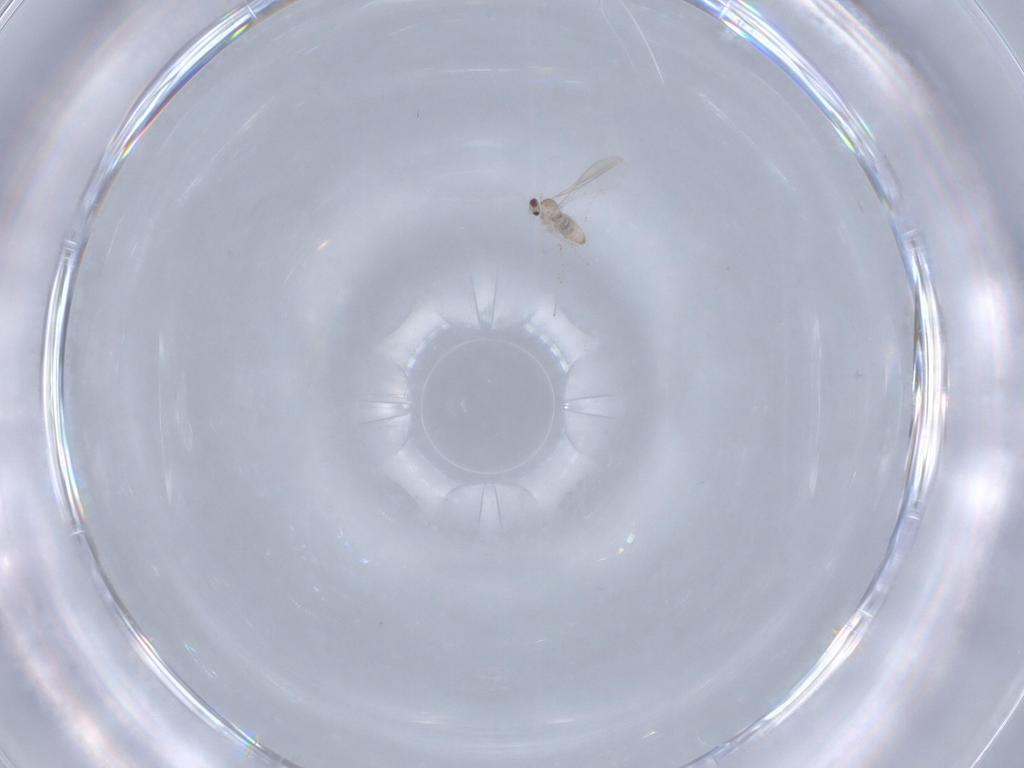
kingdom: Animalia
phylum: Arthropoda
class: Insecta
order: Diptera
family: Cecidomyiidae
